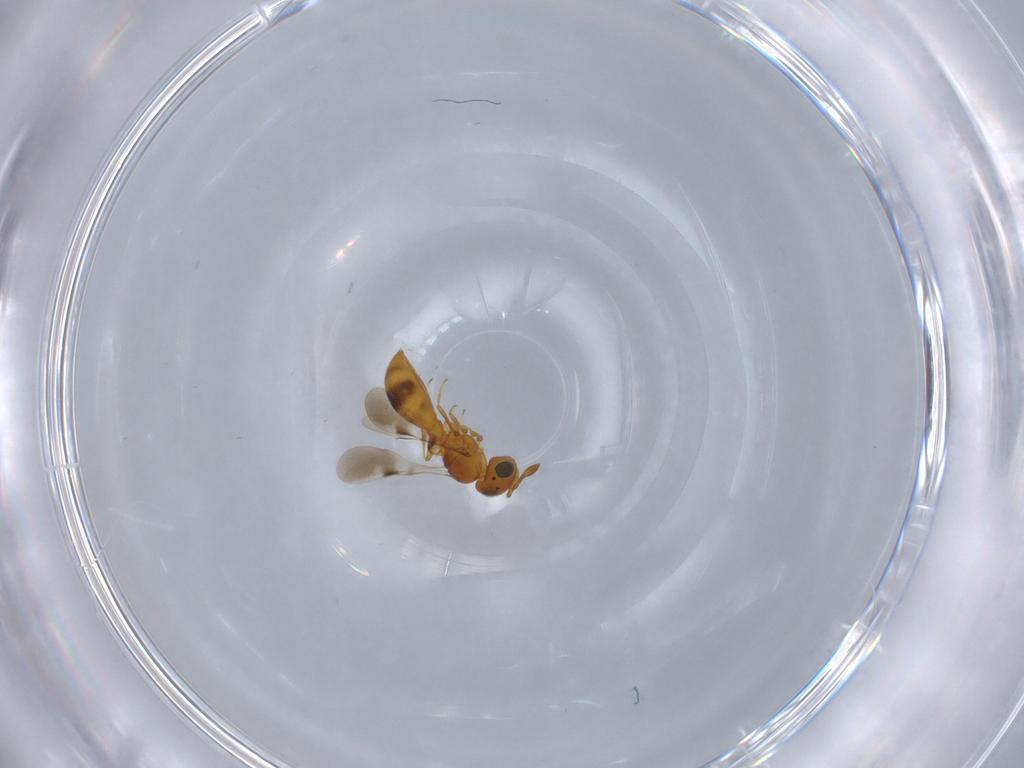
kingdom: Animalia
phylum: Arthropoda
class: Insecta
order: Hymenoptera
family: Scelionidae
